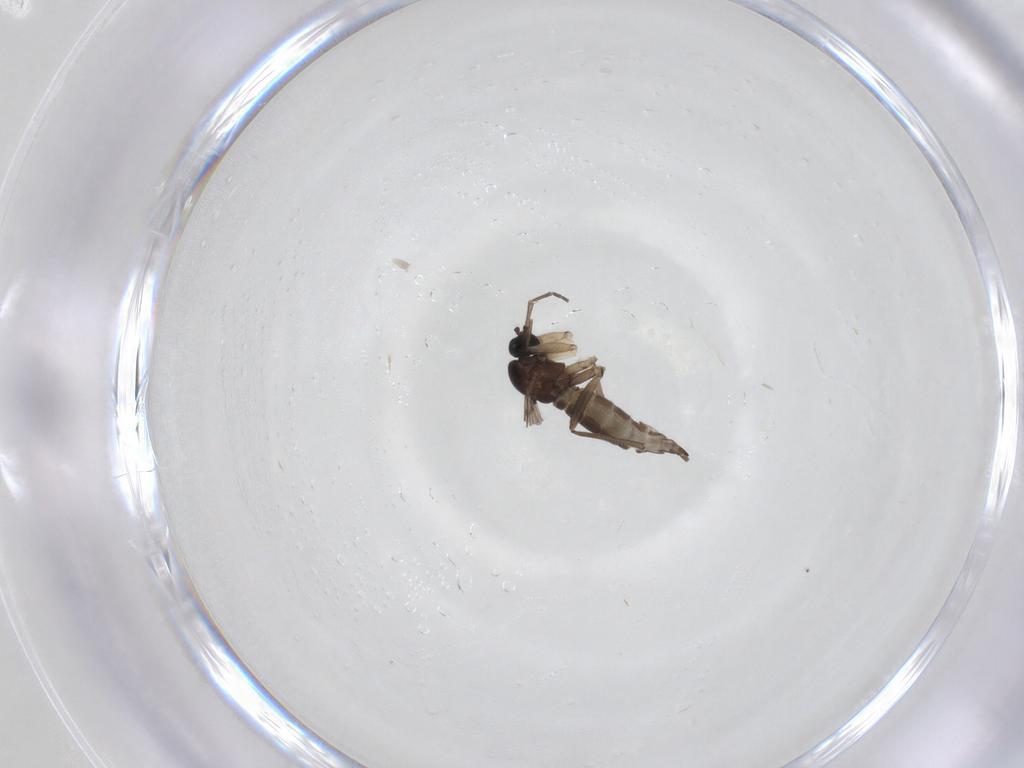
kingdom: Animalia
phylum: Arthropoda
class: Insecta
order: Diptera
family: Sciaridae
